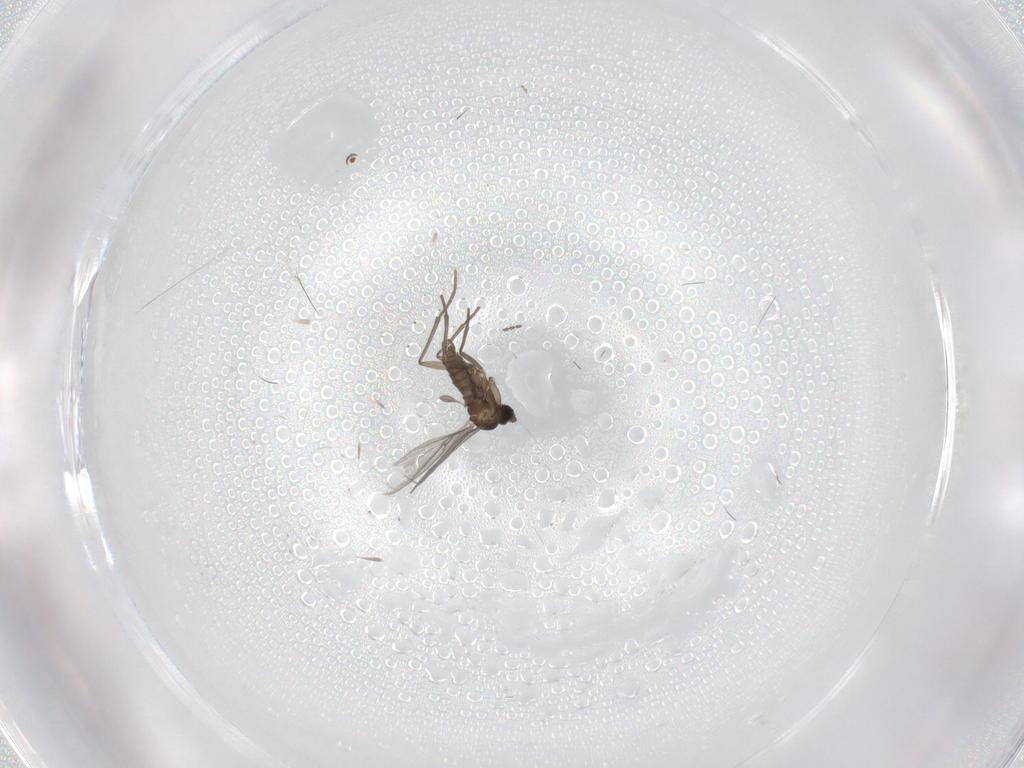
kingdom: Animalia
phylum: Arthropoda
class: Insecta
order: Diptera
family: Sciaridae
